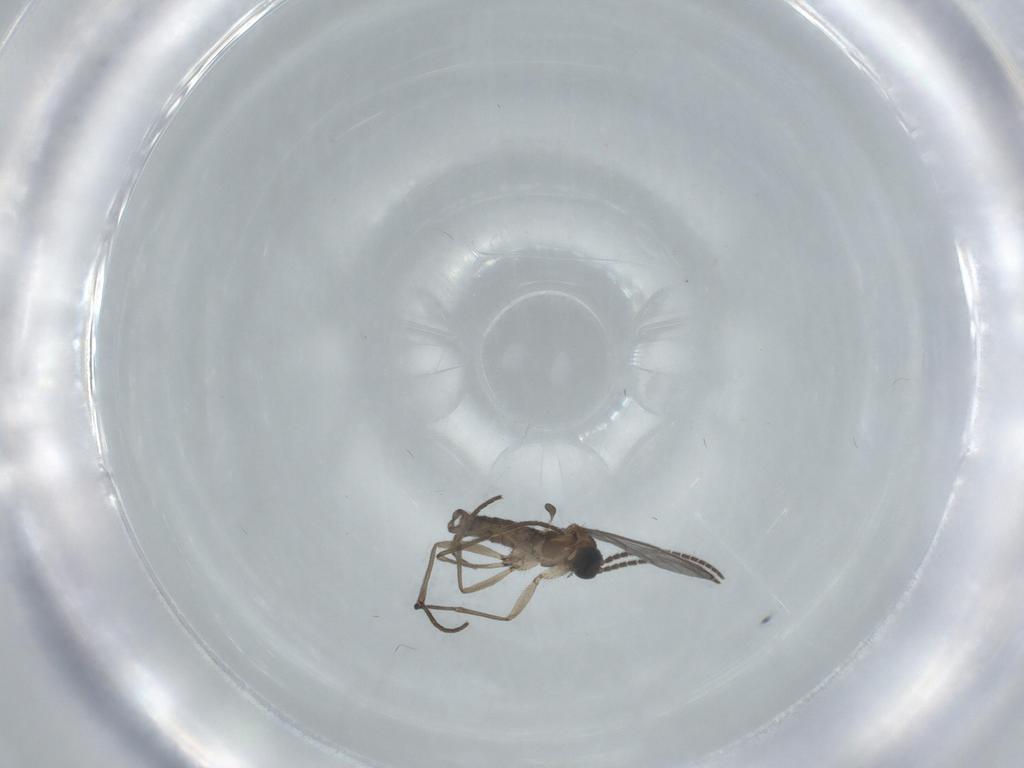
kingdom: Animalia
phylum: Arthropoda
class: Insecta
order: Diptera
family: Sciaridae
